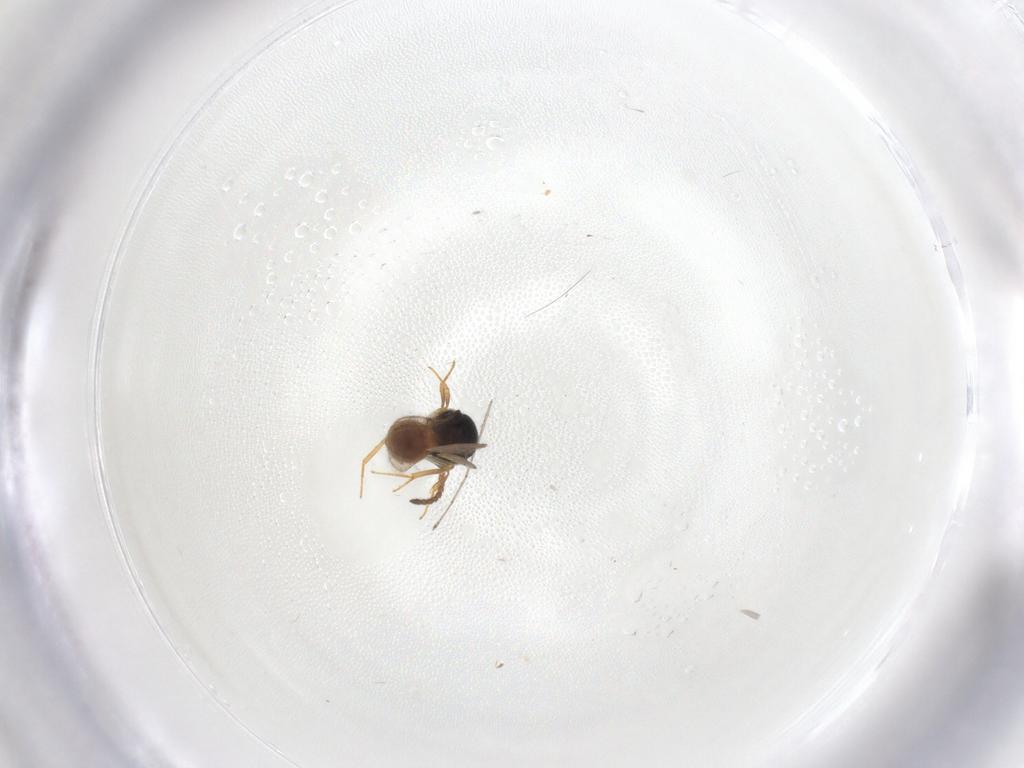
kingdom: Animalia
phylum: Arthropoda
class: Insecta
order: Hymenoptera
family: Scelionidae
